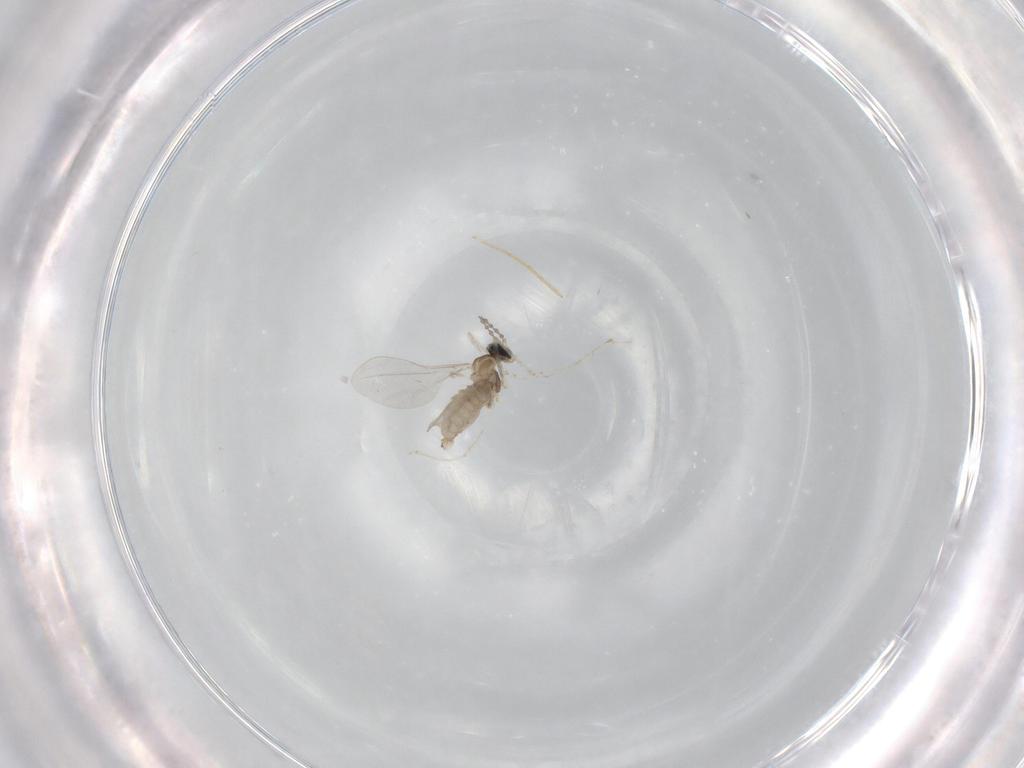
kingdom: Animalia
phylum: Arthropoda
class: Insecta
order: Diptera
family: Cecidomyiidae
